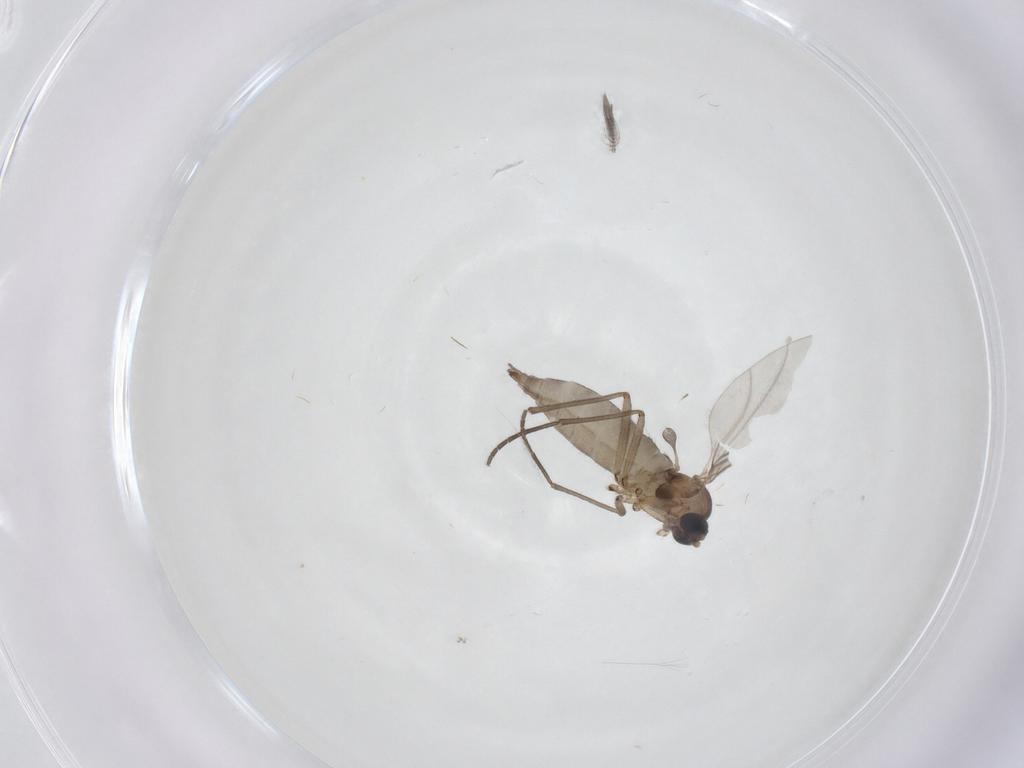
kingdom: Animalia
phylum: Arthropoda
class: Insecta
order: Diptera
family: Sciaridae
